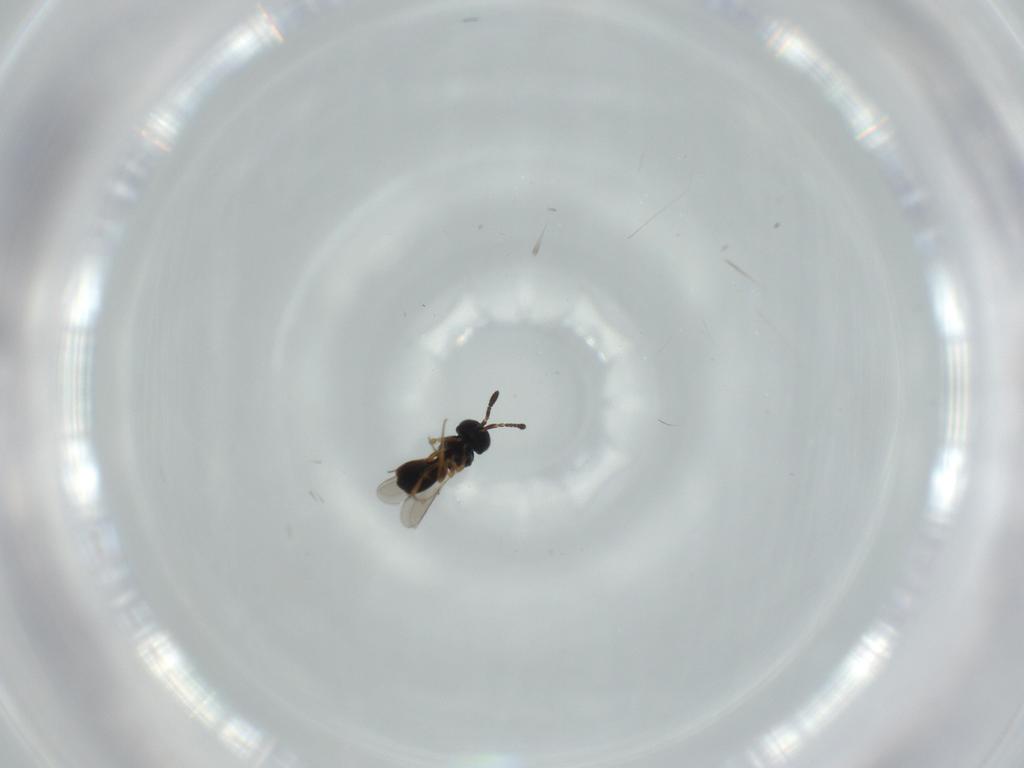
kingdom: Animalia
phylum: Arthropoda
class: Insecta
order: Hymenoptera
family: Scelionidae
